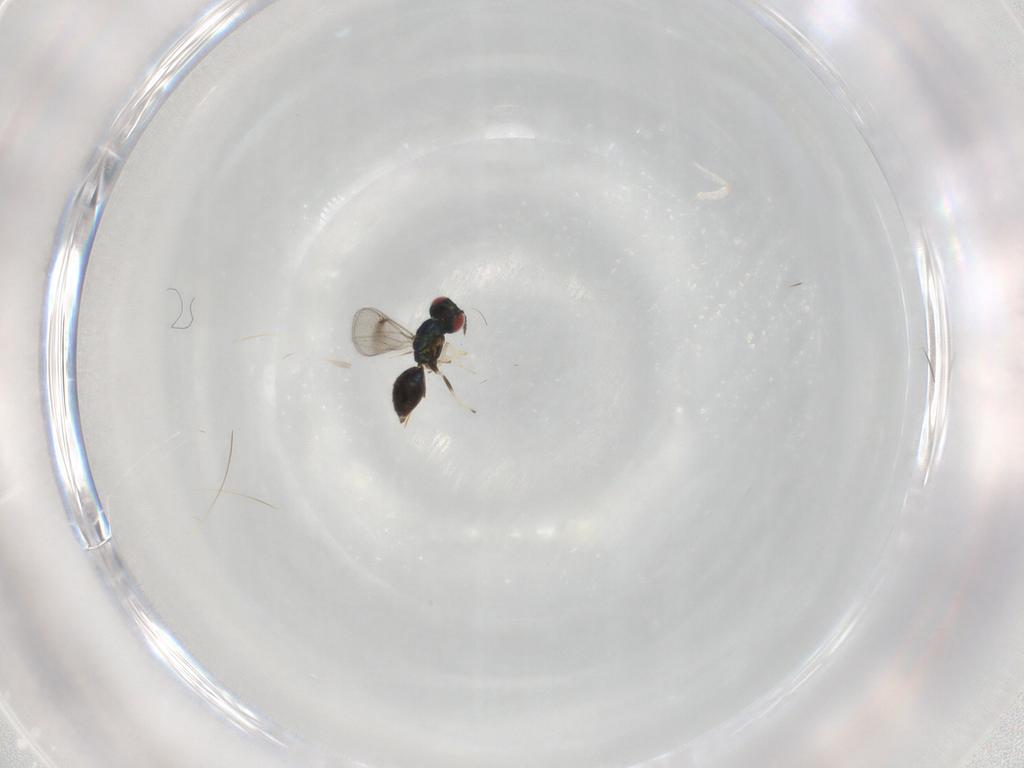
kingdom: Animalia
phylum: Arthropoda
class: Insecta
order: Hymenoptera
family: Eulophidae
